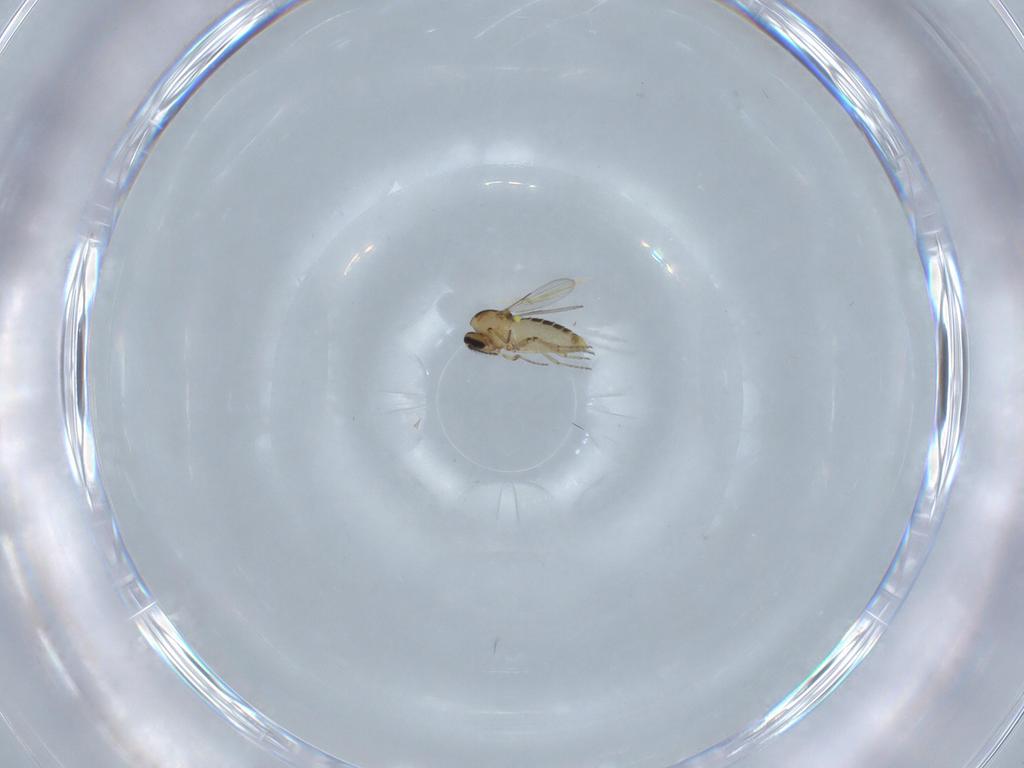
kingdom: Animalia
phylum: Arthropoda
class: Insecta
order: Diptera
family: Ceratopogonidae
